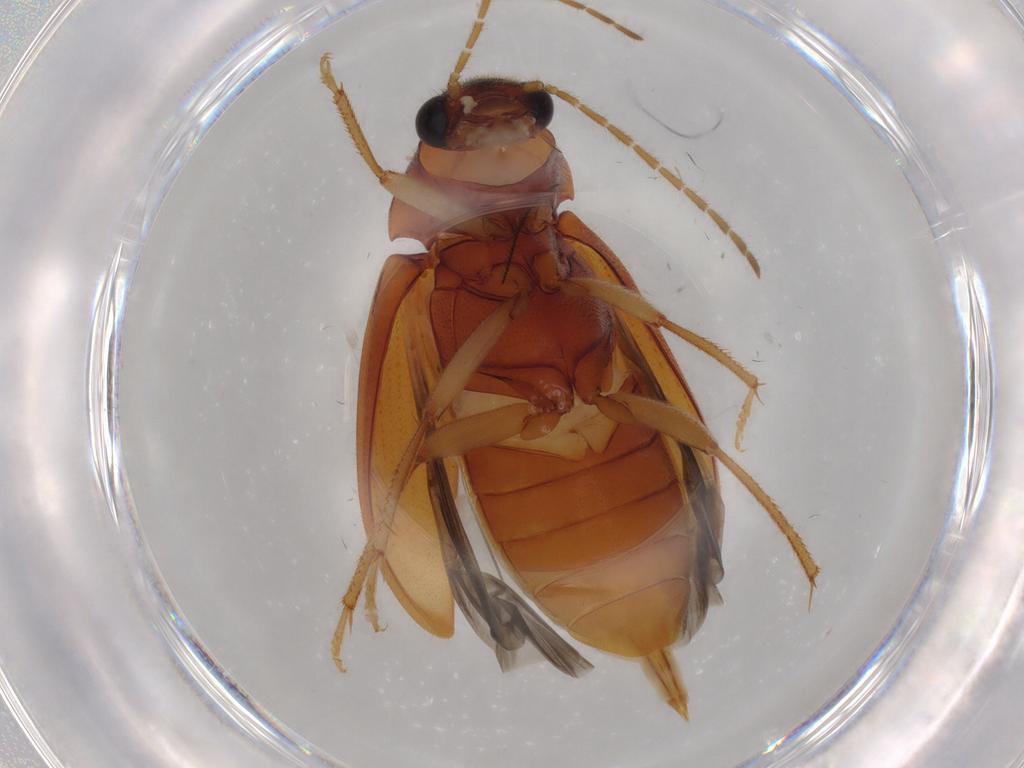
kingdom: Animalia
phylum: Arthropoda
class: Insecta
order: Coleoptera
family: Ptilodactylidae
